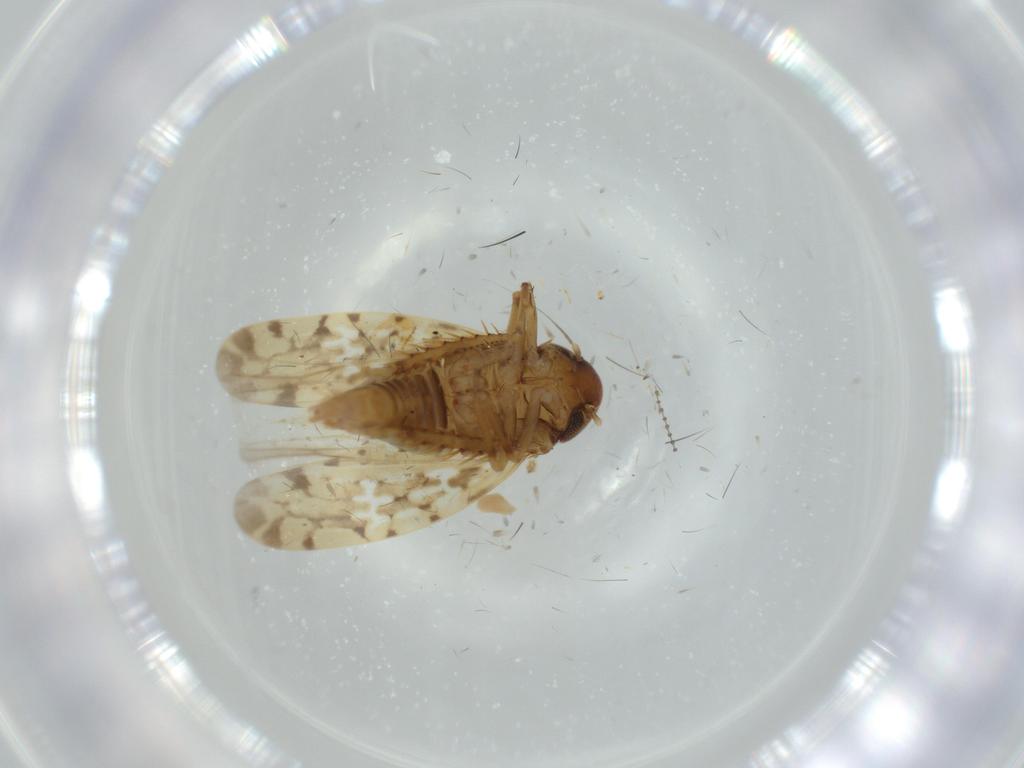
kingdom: Animalia
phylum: Arthropoda
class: Insecta
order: Hemiptera
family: Cicadellidae
